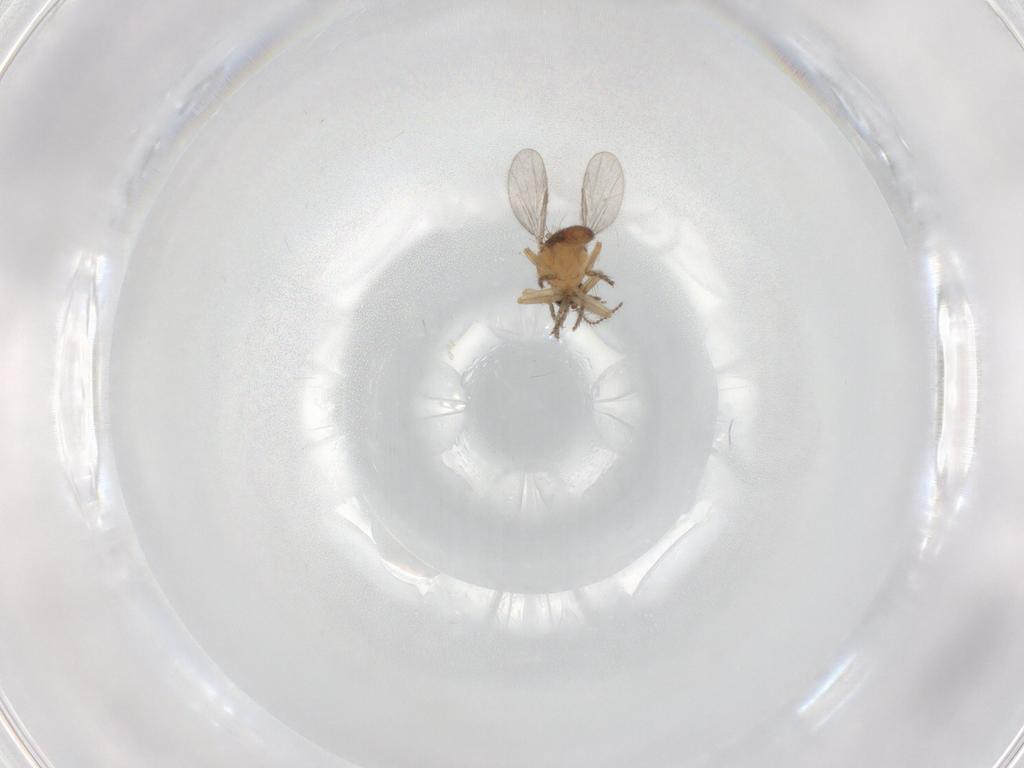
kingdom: Animalia
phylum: Arthropoda
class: Insecta
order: Diptera
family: Ceratopogonidae
